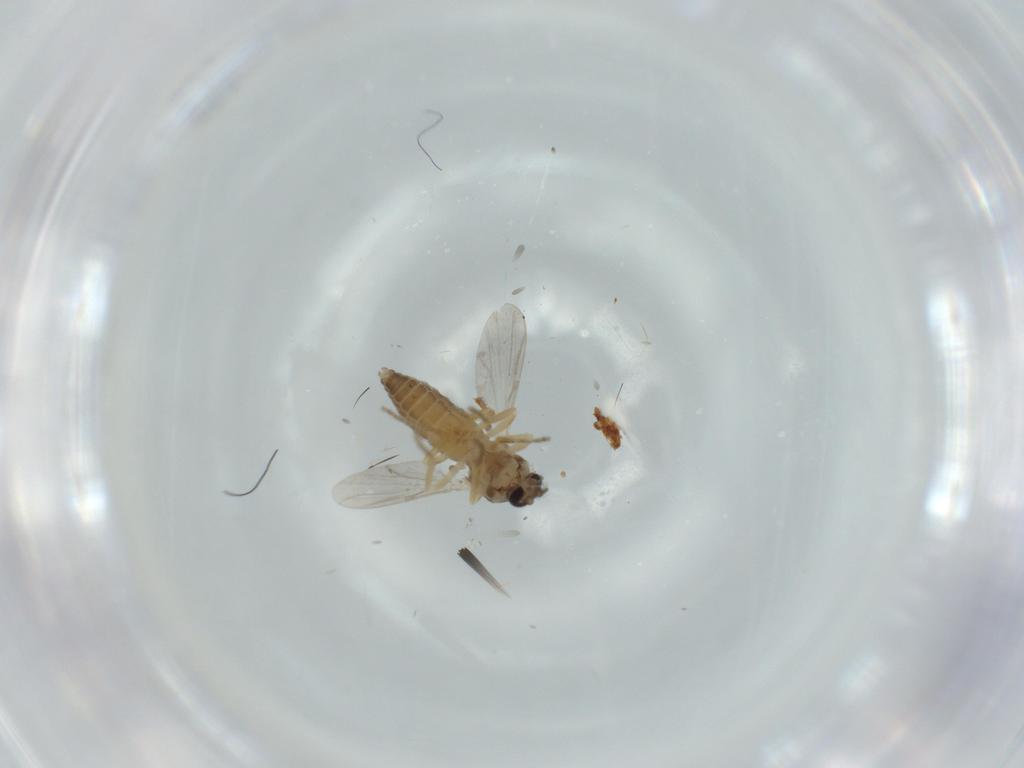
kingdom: Animalia
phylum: Arthropoda
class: Insecta
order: Diptera
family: Ceratopogonidae
